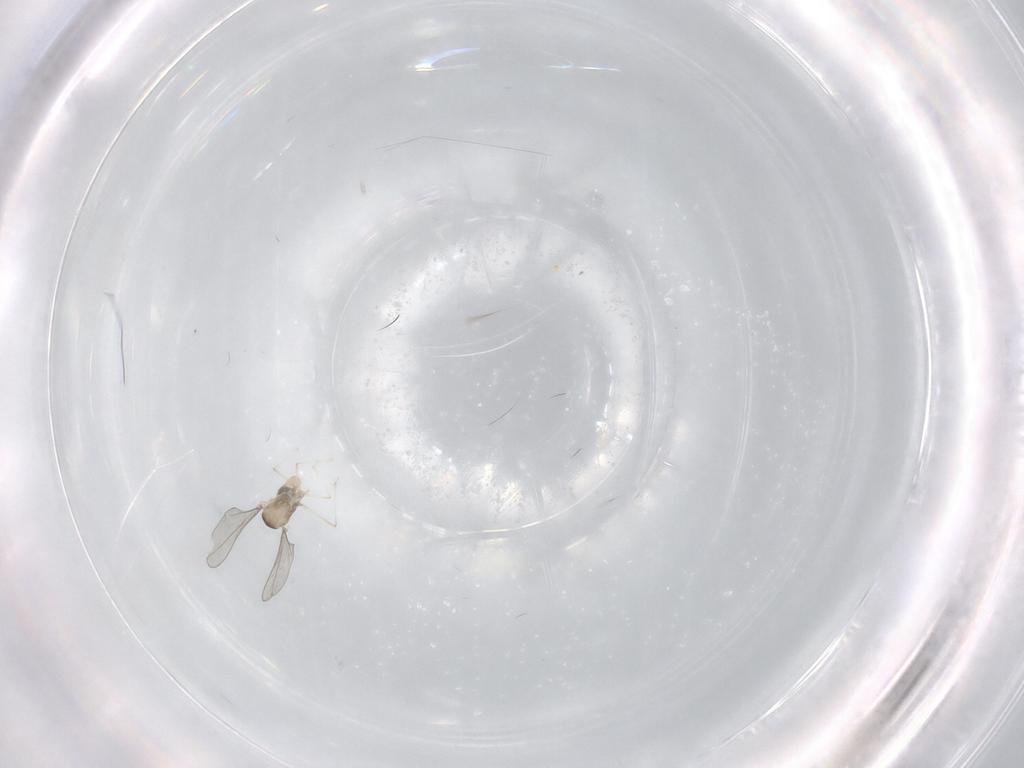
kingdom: Animalia
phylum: Arthropoda
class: Insecta
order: Diptera
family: Cecidomyiidae
